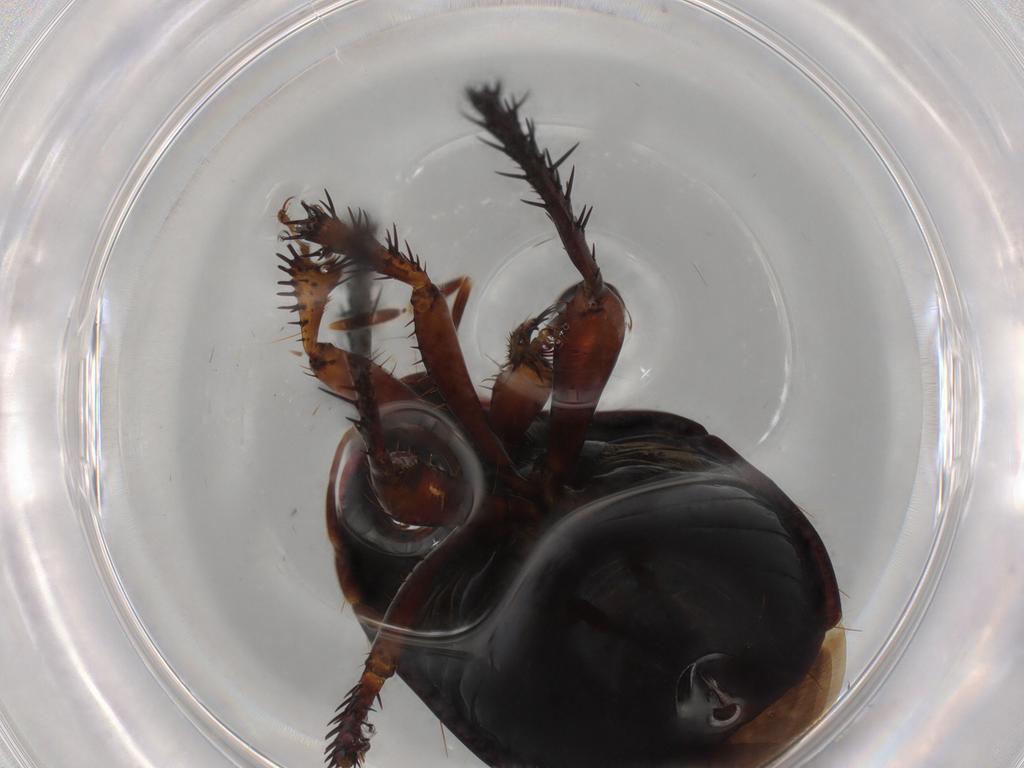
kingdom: Animalia
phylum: Arthropoda
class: Insecta
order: Hemiptera
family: Cydnidae
